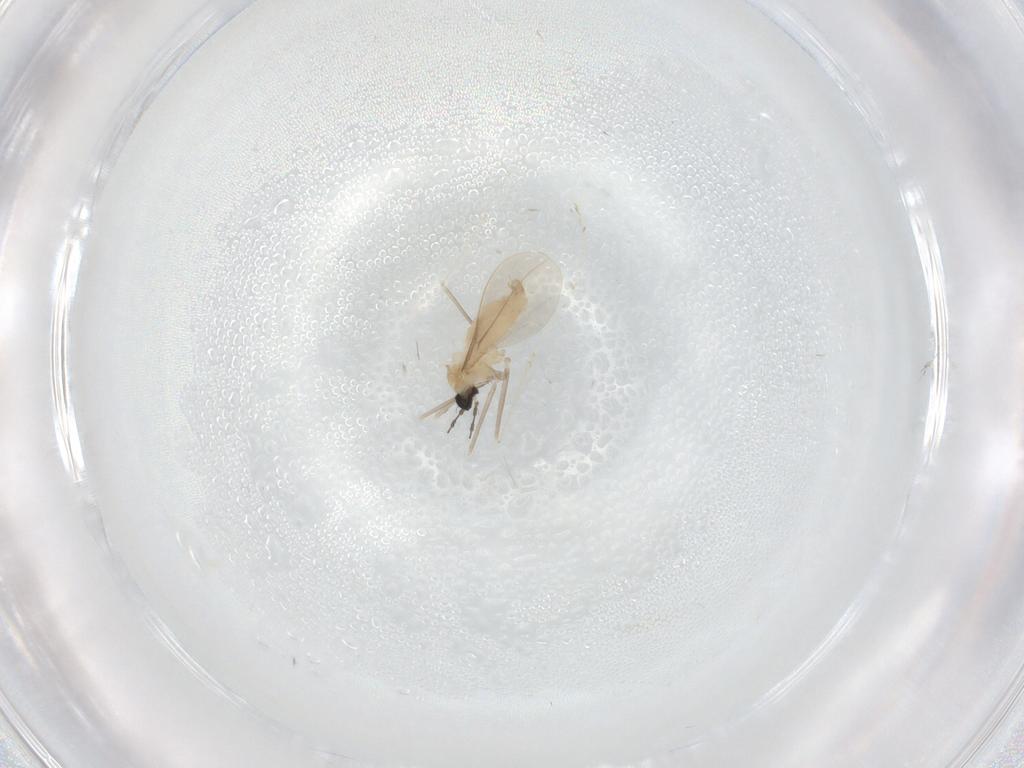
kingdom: Animalia
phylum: Arthropoda
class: Insecta
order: Diptera
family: Cecidomyiidae
